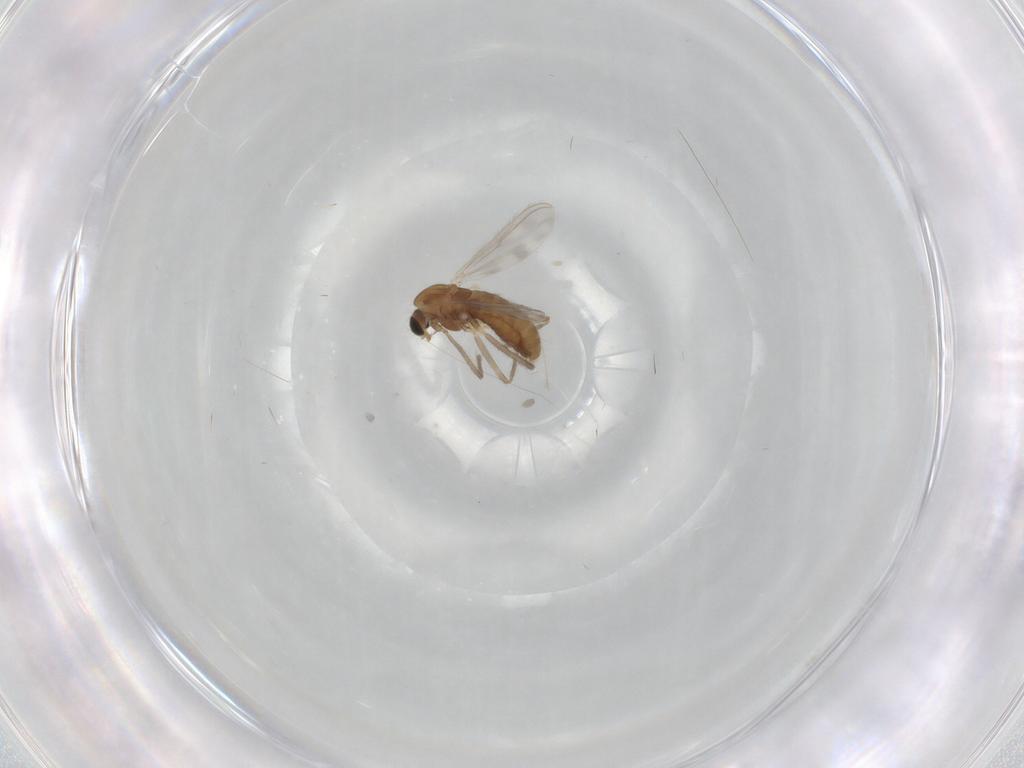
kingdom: Animalia
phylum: Arthropoda
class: Insecta
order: Diptera
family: Chironomidae
